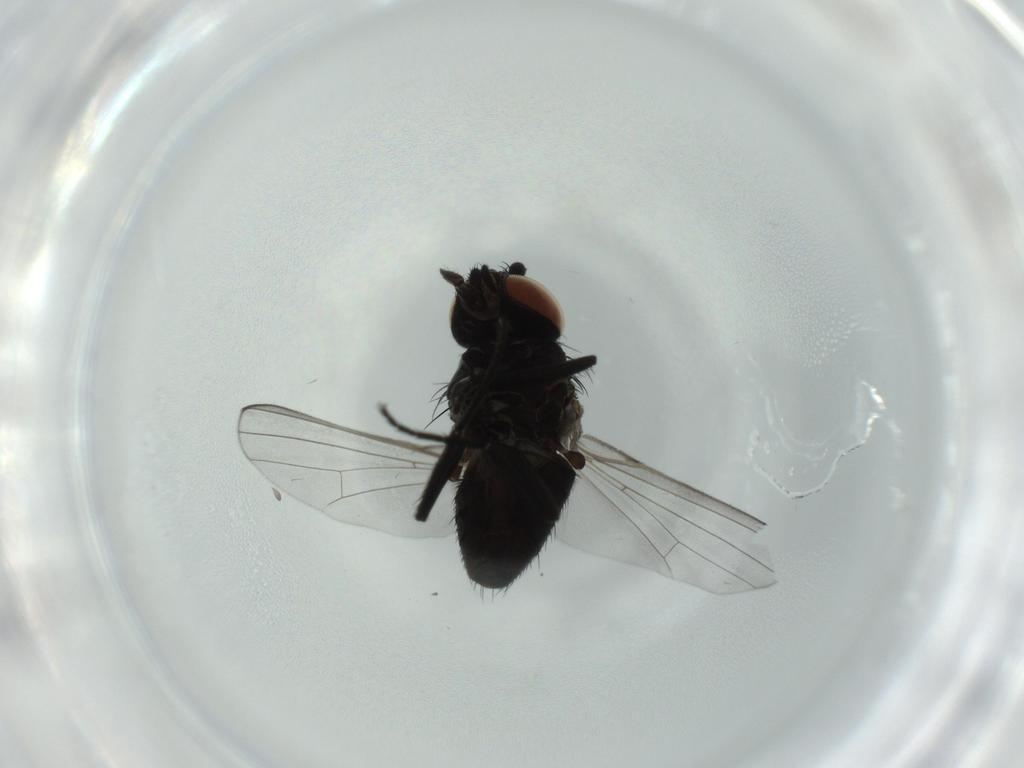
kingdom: Animalia
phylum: Arthropoda
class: Insecta
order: Diptera
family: Milichiidae
